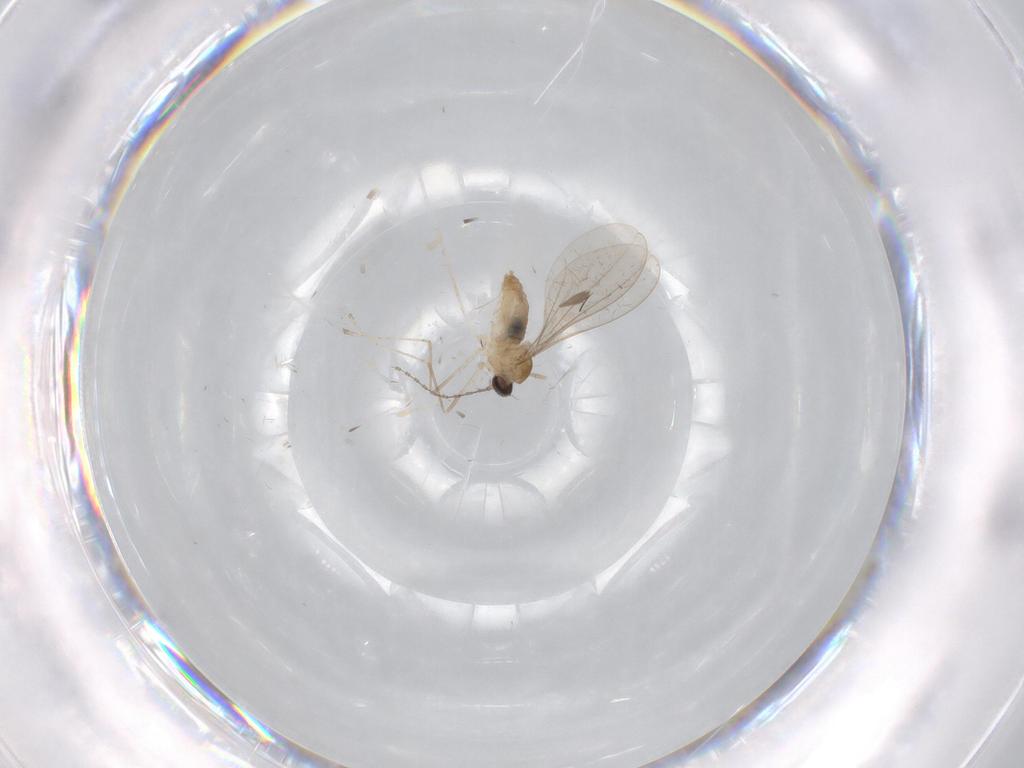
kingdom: Animalia
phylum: Arthropoda
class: Insecta
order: Diptera
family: Cecidomyiidae
